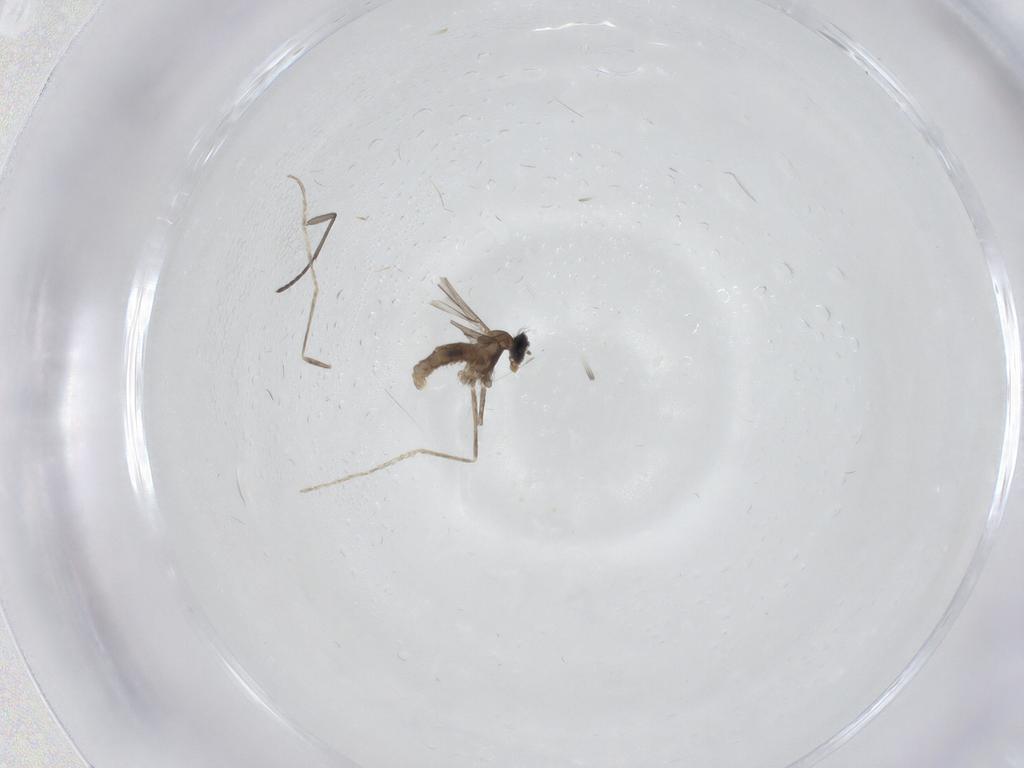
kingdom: Animalia
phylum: Arthropoda
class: Insecta
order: Diptera
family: Cecidomyiidae
